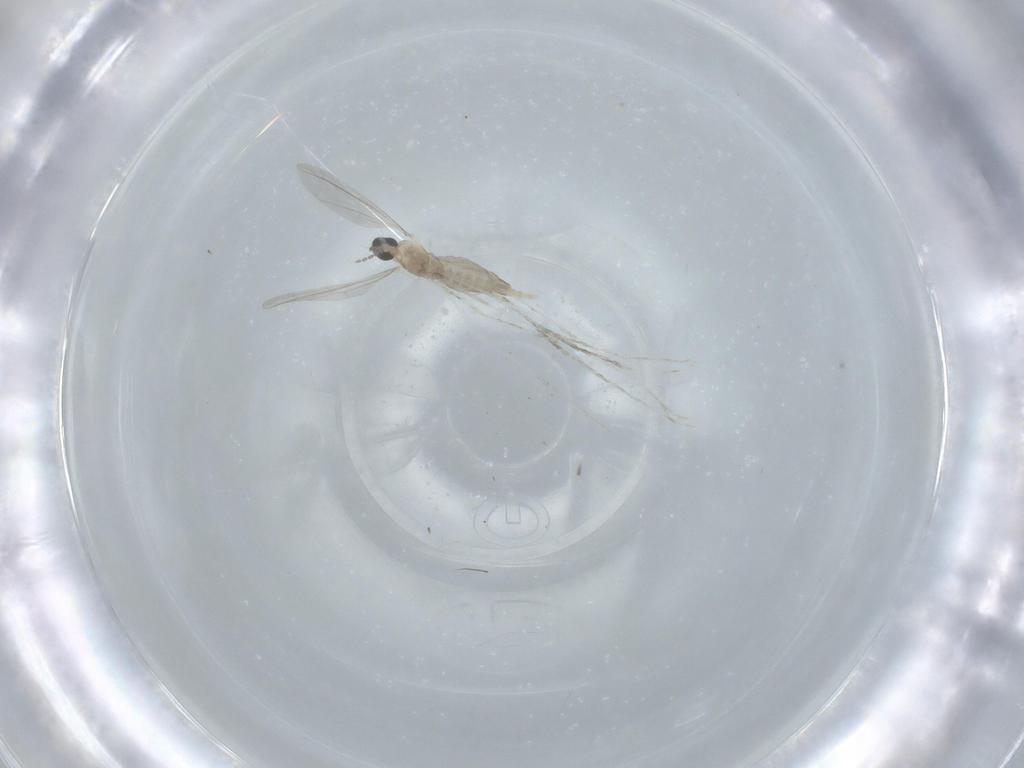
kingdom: Animalia
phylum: Arthropoda
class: Insecta
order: Diptera
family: Cecidomyiidae
